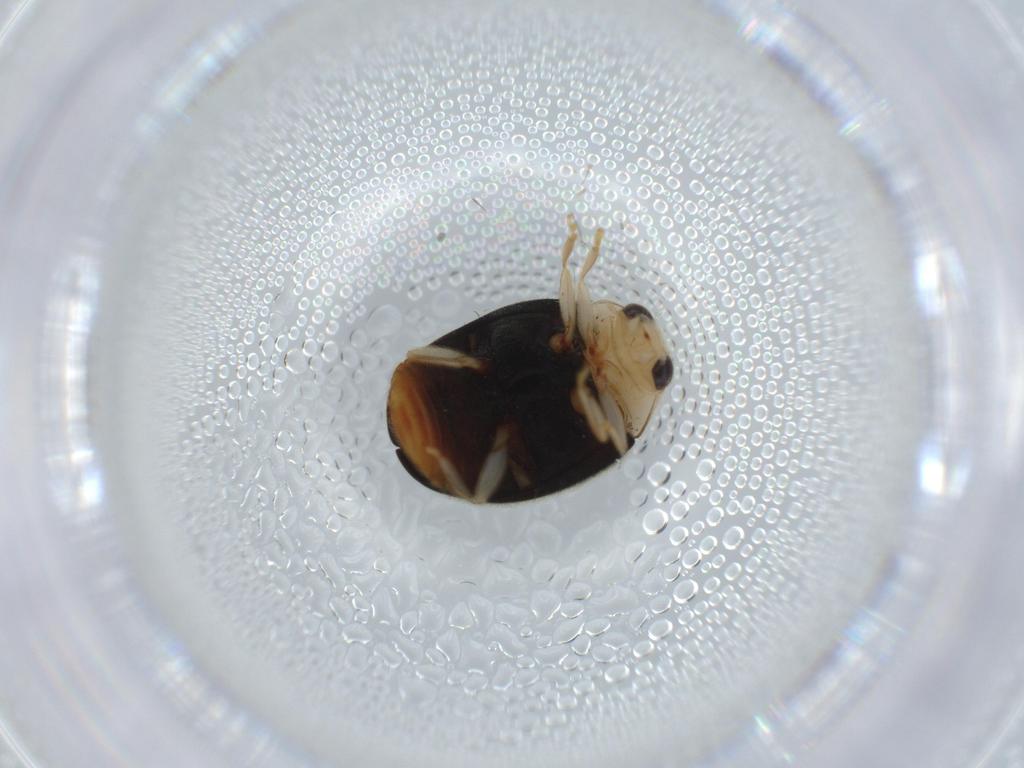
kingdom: Animalia
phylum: Arthropoda
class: Insecta
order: Coleoptera
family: Coccinellidae
